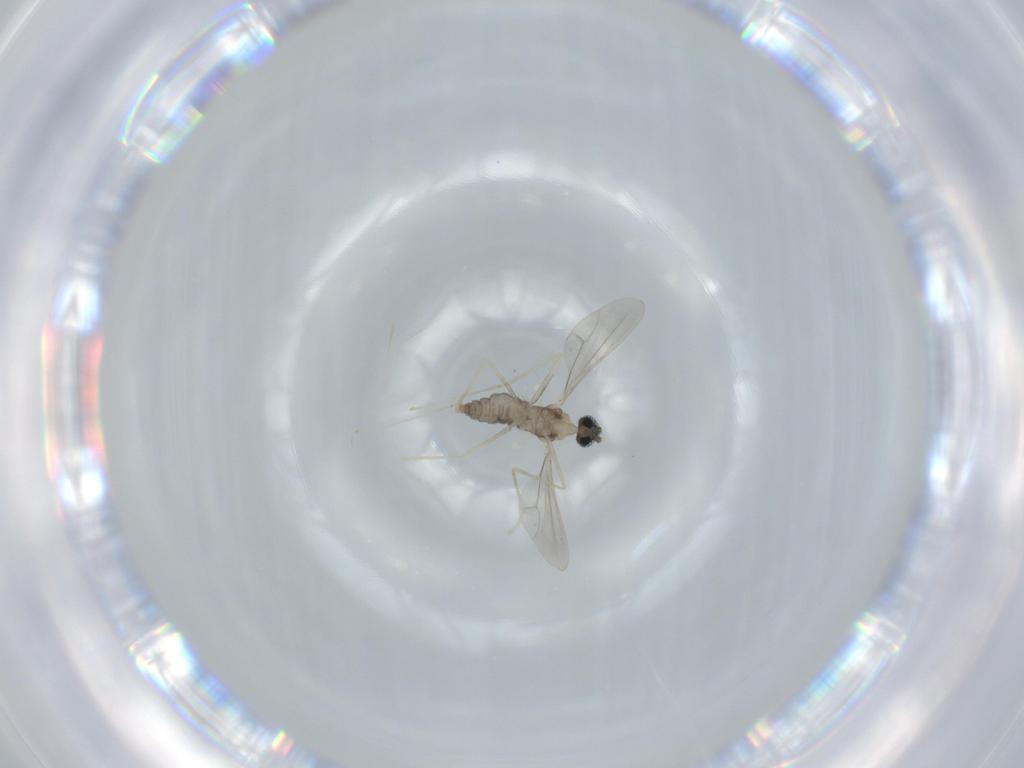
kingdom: Animalia
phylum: Arthropoda
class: Insecta
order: Diptera
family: Cecidomyiidae
